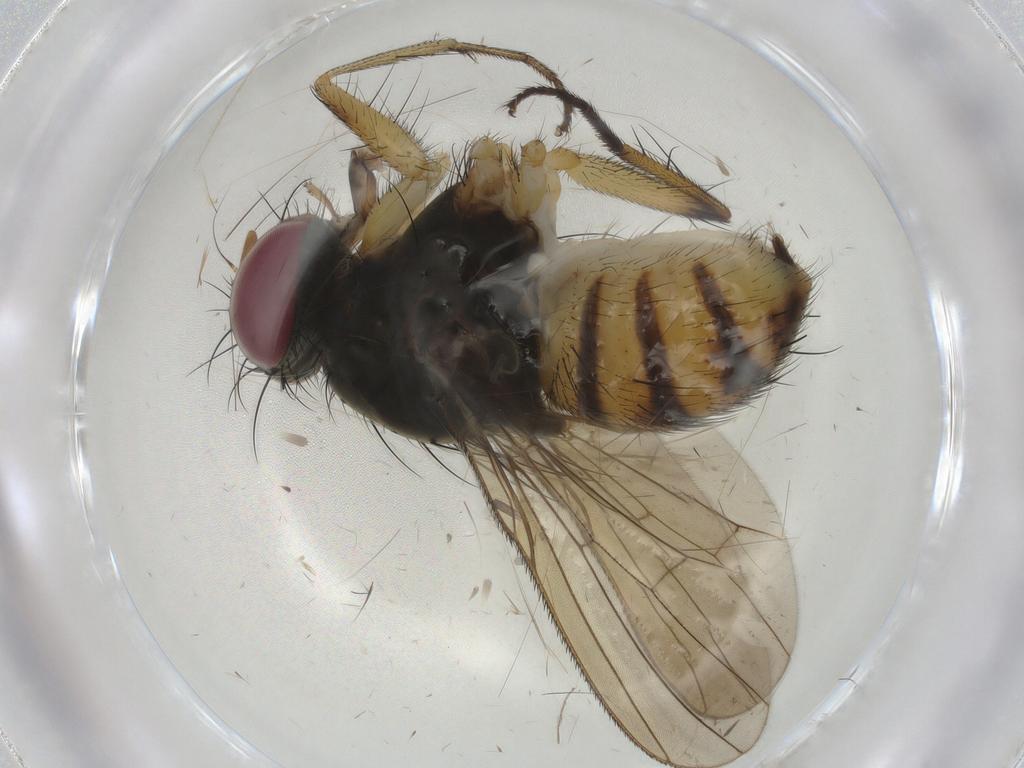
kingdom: Animalia
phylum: Arthropoda
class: Insecta
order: Diptera
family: Muscidae
